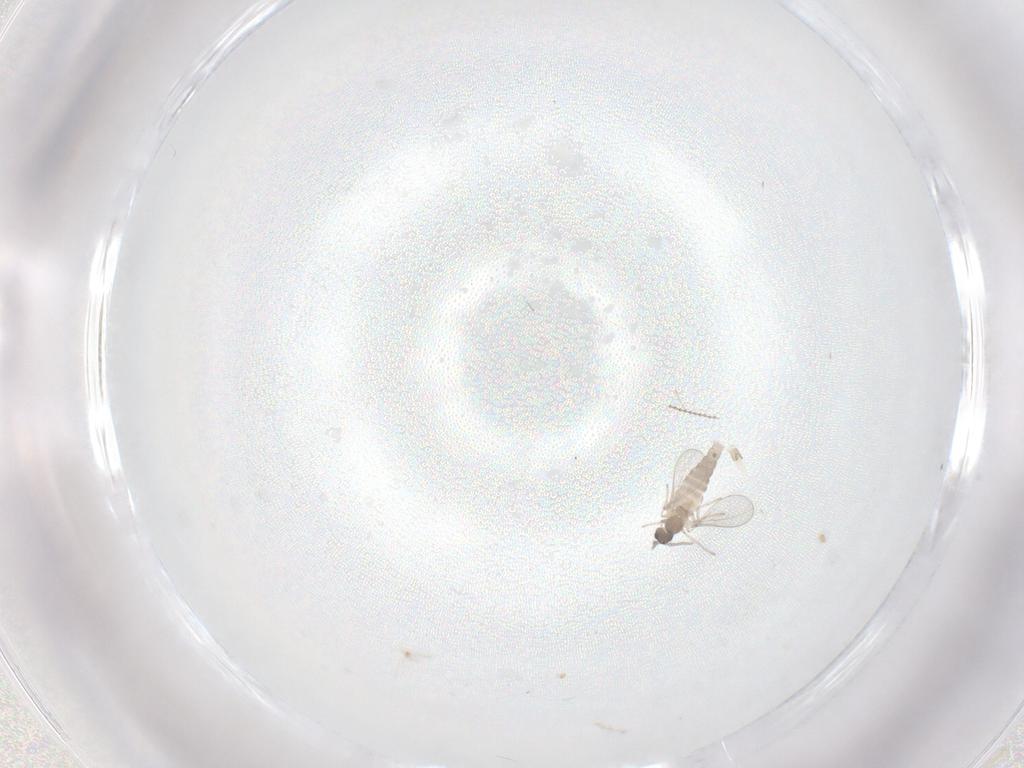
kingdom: Animalia
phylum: Arthropoda
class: Insecta
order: Diptera
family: Cecidomyiidae
